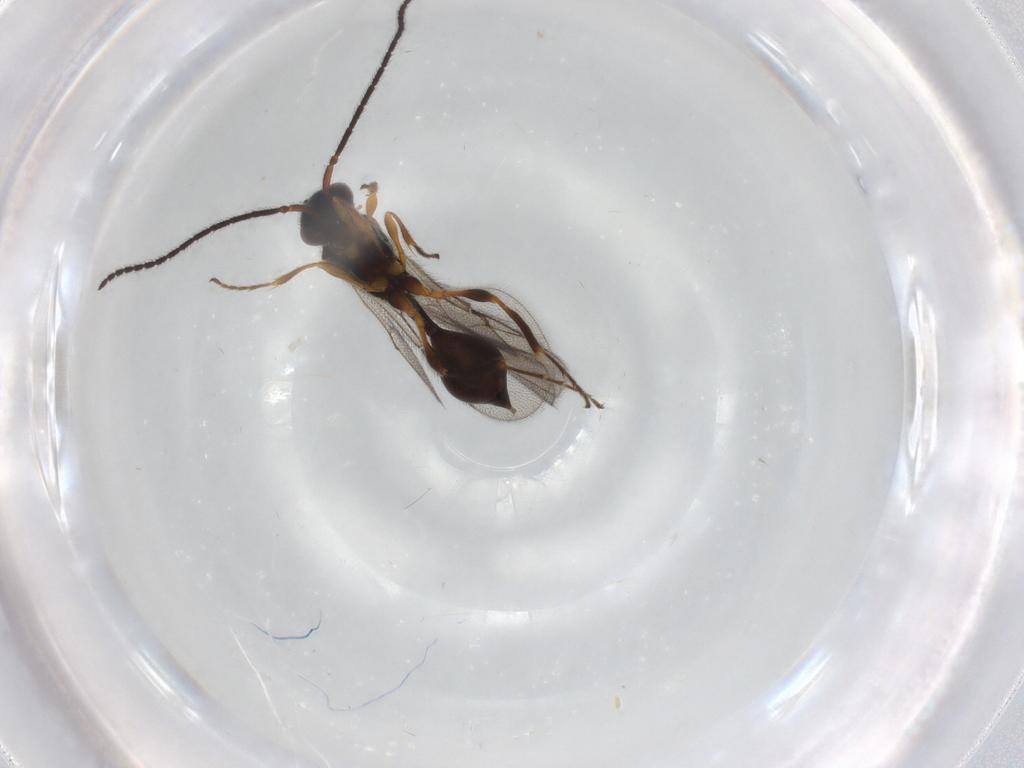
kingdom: Animalia
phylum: Arthropoda
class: Insecta
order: Hymenoptera
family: Diapriidae
